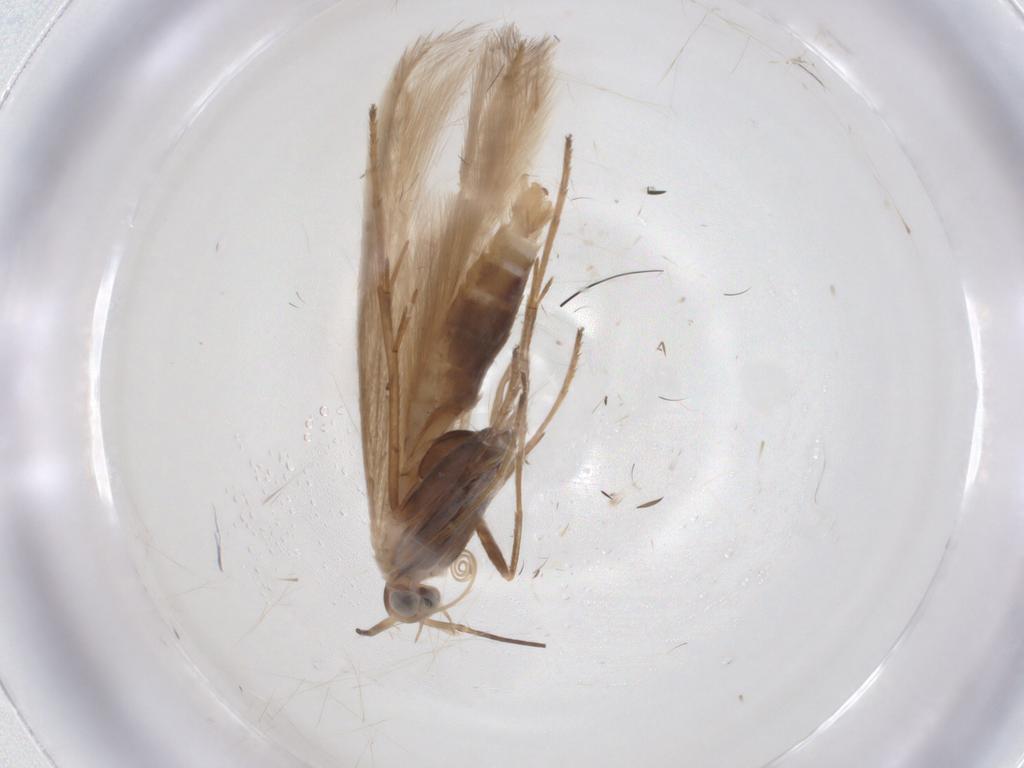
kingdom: Animalia
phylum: Arthropoda
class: Insecta
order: Lepidoptera
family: Coleophoridae
